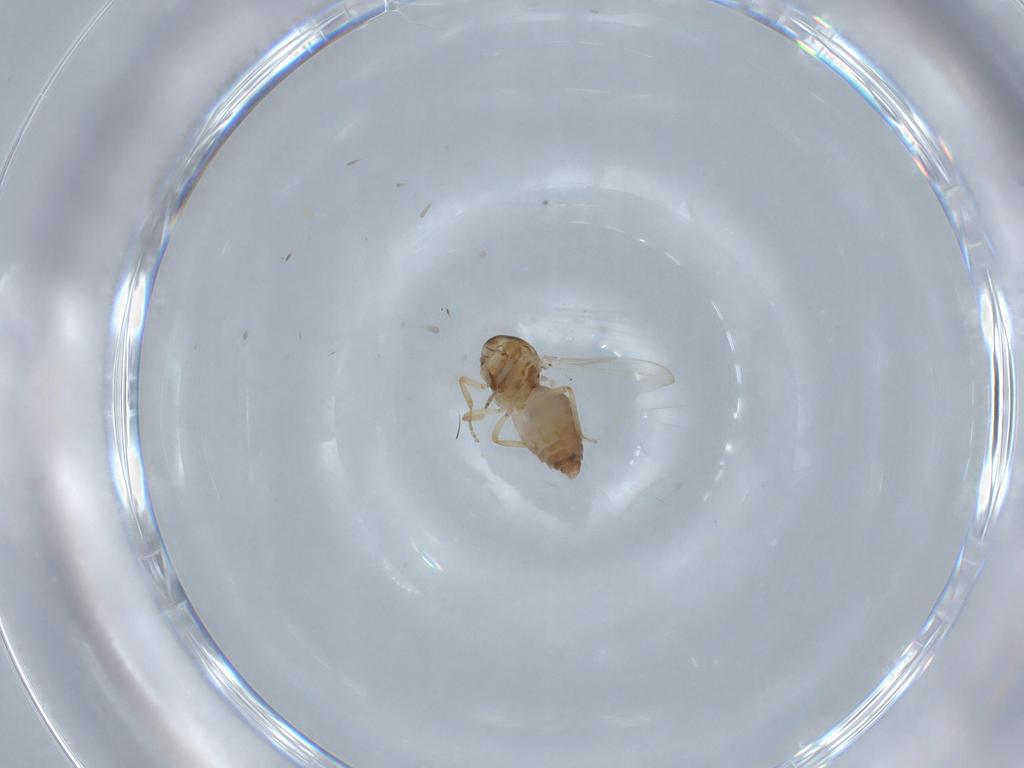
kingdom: Animalia
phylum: Arthropoda
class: Insecta
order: Diptera
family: Ceratopogonidae
